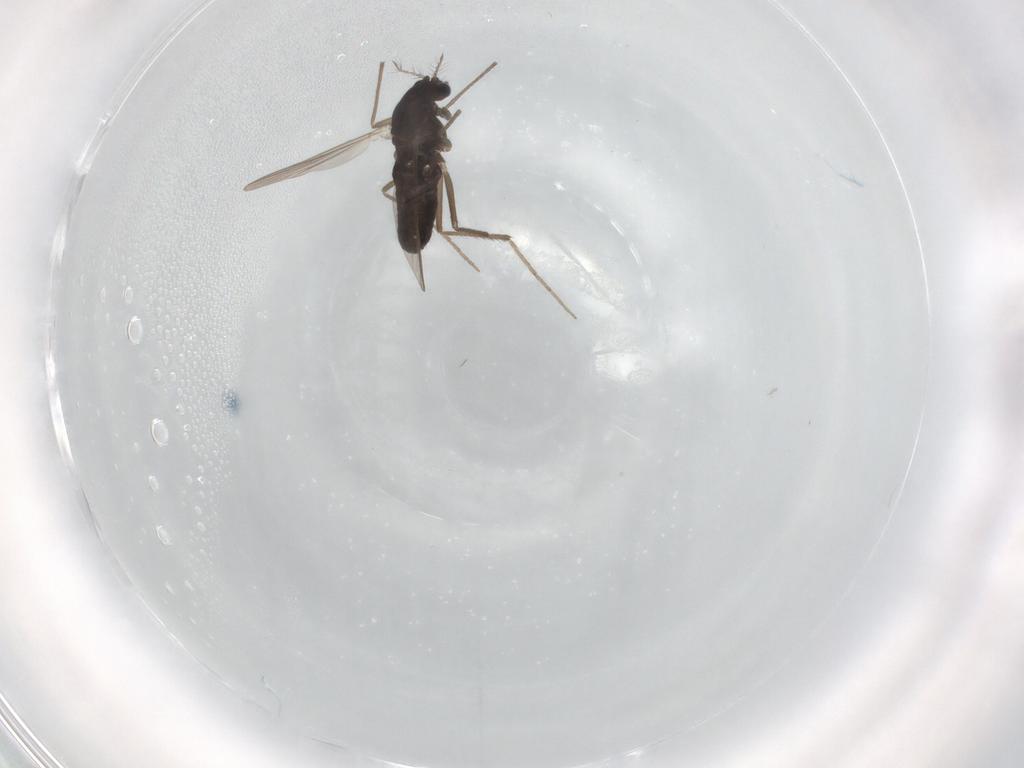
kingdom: Animalia
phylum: Arthropoda
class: Insecta
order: Diptera
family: Chironomidae
